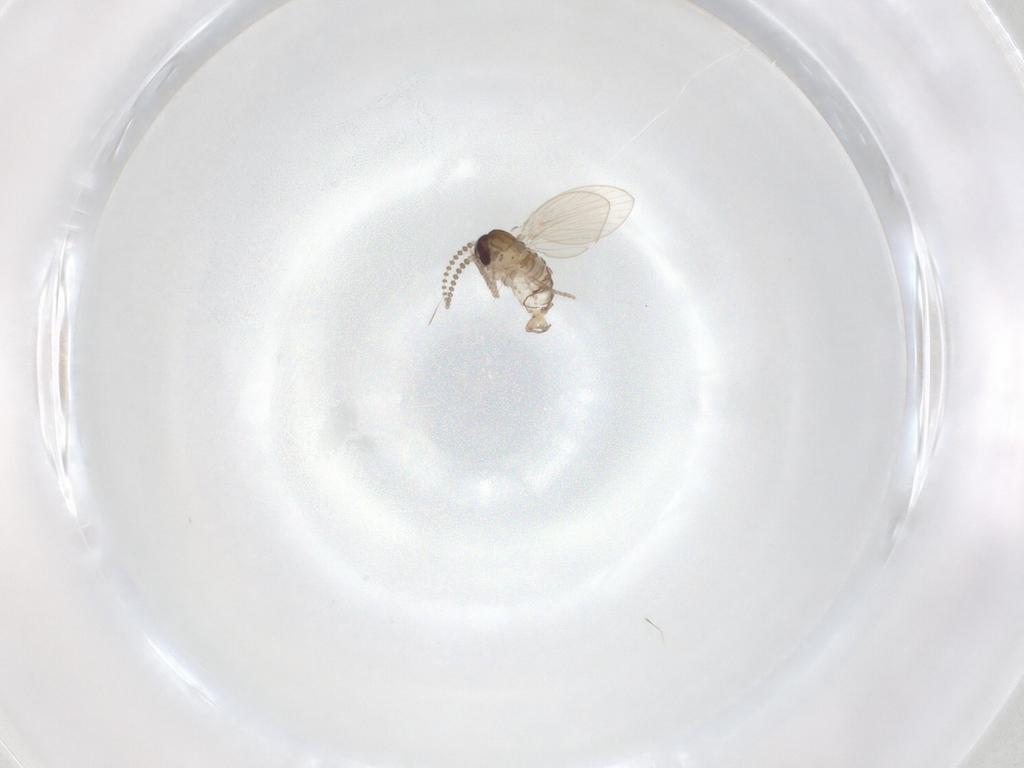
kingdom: Animalia
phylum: Arthropoda
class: Insecta
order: Diptera
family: Psychodidae
